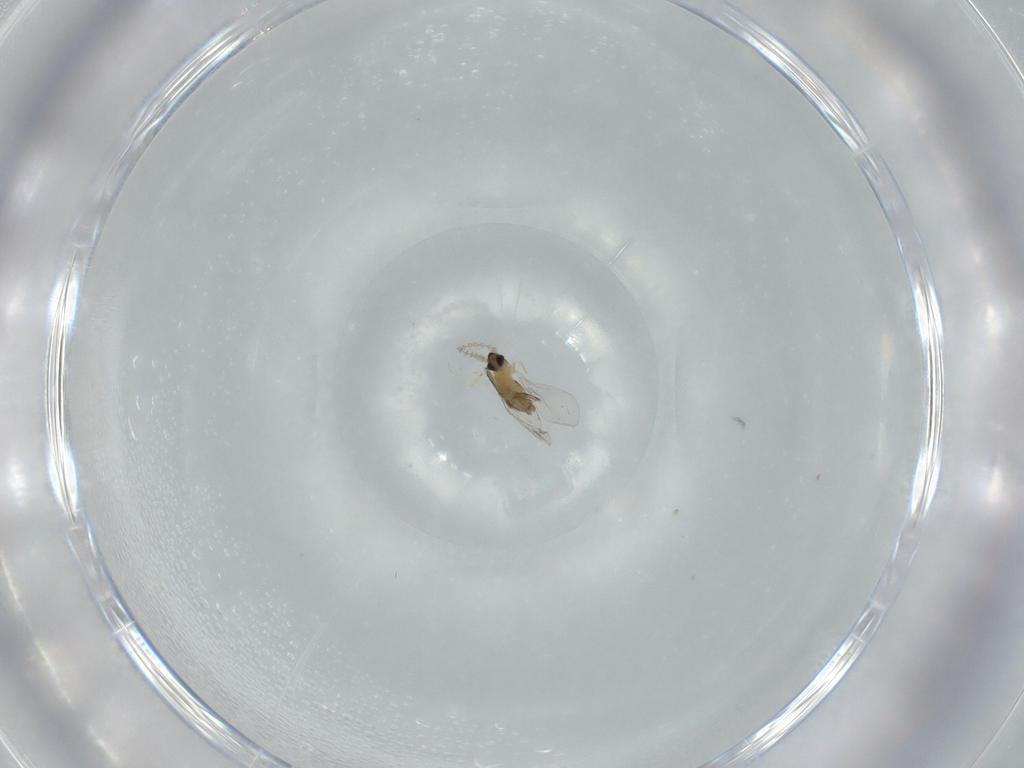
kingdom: Animalia
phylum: Arthropoda
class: Insecta
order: Diptera
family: Cecidomyiidae
